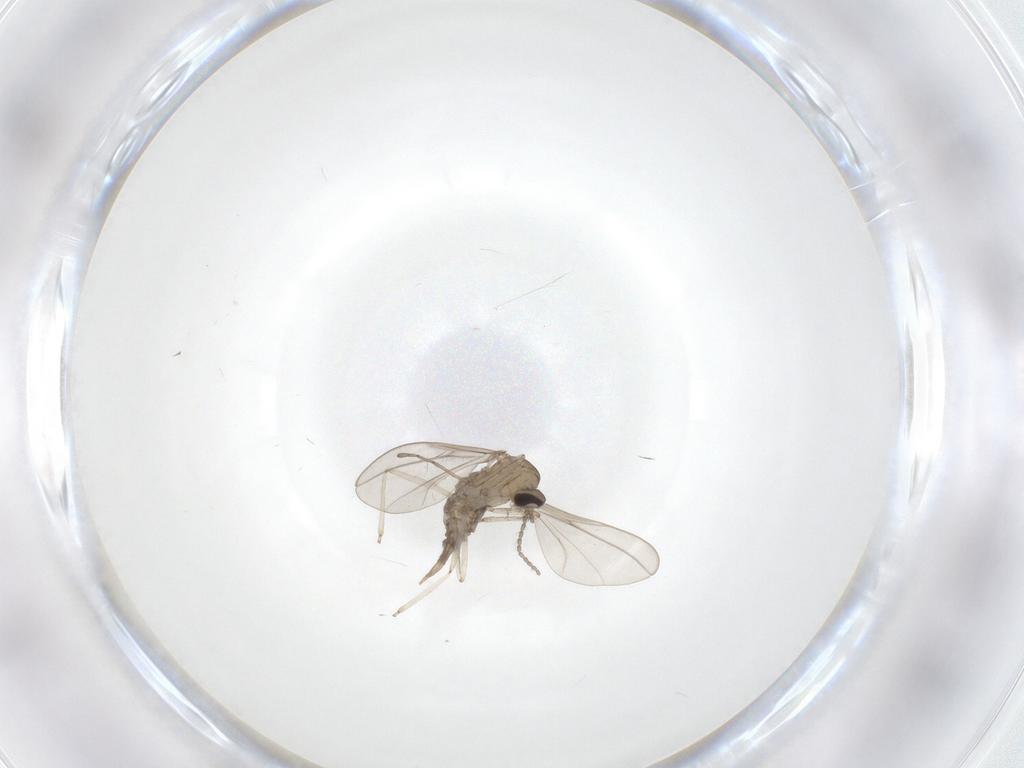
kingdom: Animalia
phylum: Arthropoda
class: Insecta
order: Diptera
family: Cecidomyiidae
